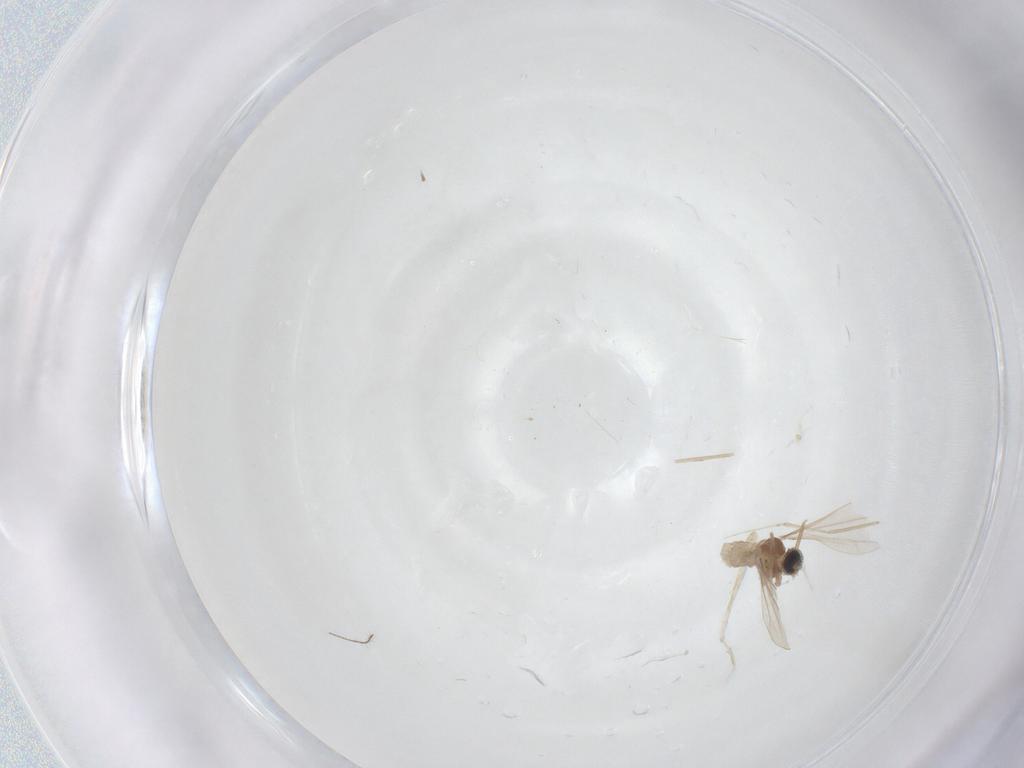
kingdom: Animalia
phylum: Arthropoda
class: Insecta
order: Diptera
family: Cecidomyiidae
